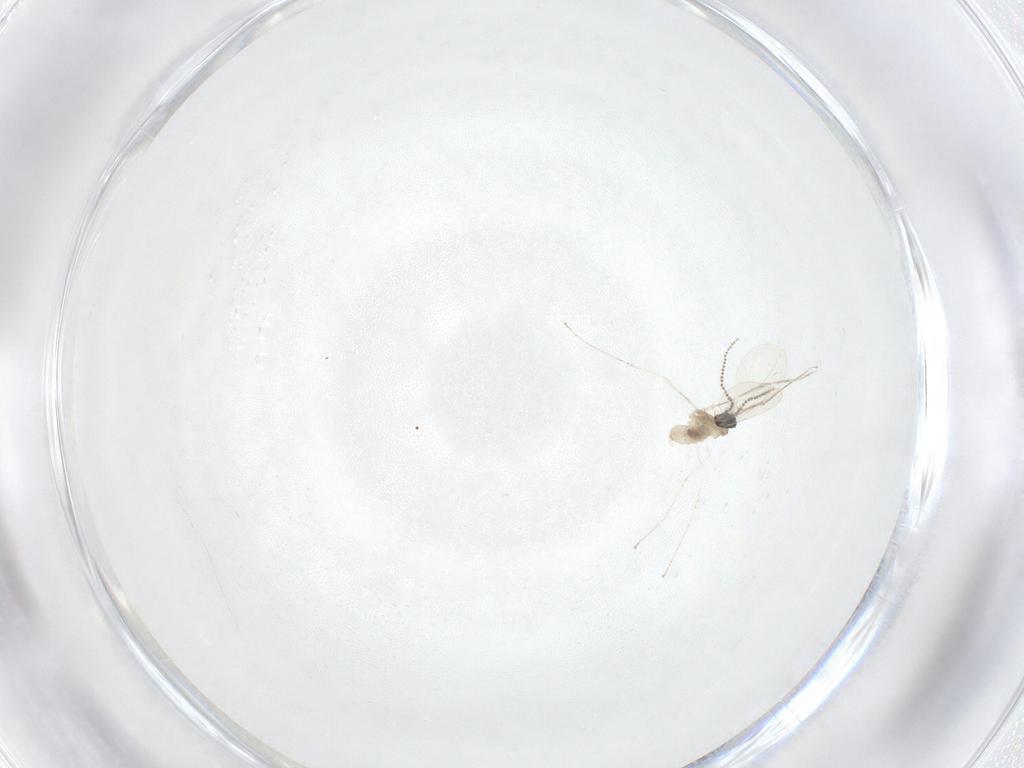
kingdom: Animalia
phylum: Arthropoda
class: Insecta
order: Diptera
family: Cecidomyiidae
